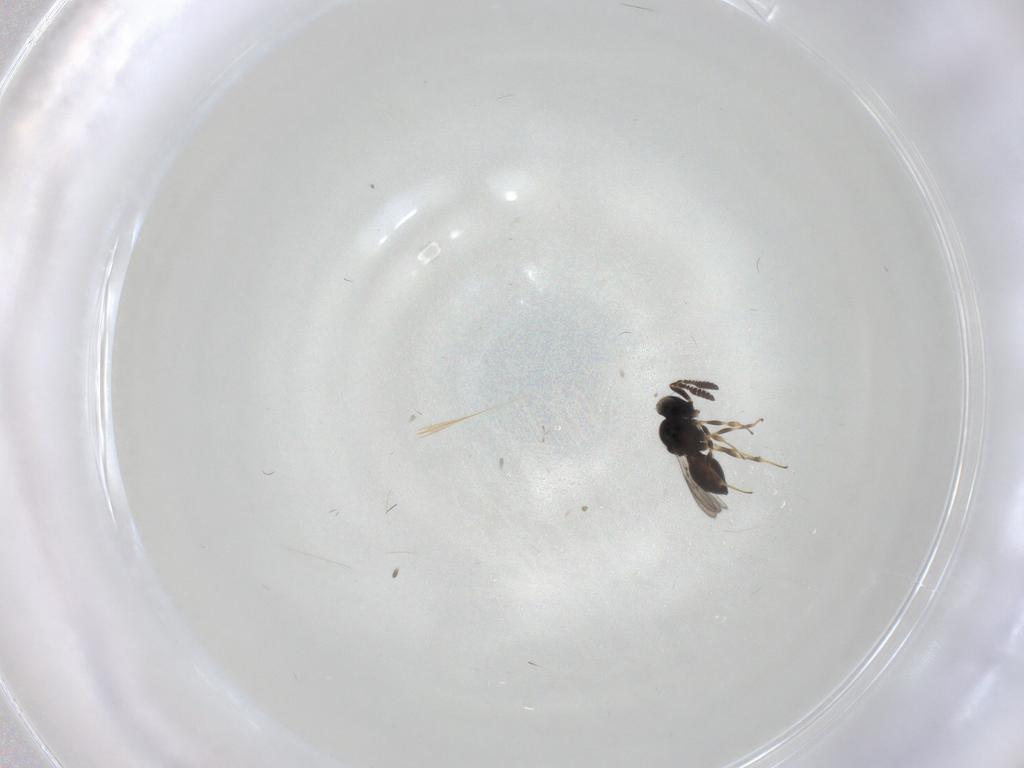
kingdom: Animalia
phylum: Arthropoda
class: Insecta
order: Hymenoptera
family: Scelionidae
